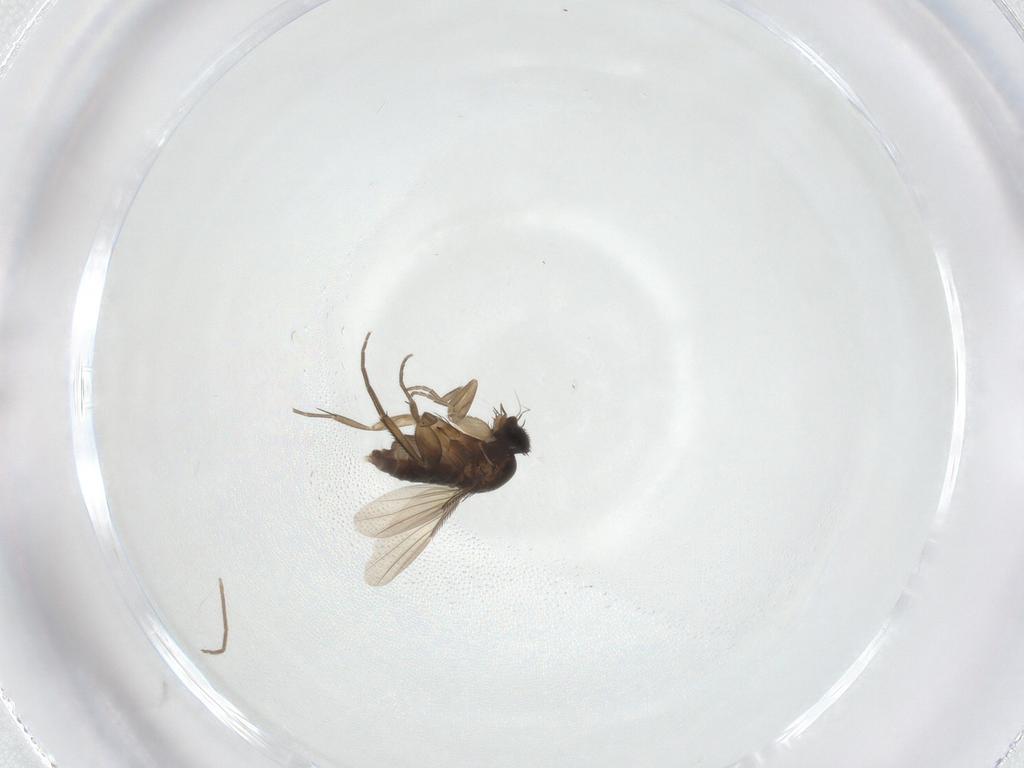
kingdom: Animalia
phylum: Arthropoda
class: Insecta
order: Diptera
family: Phoridae
